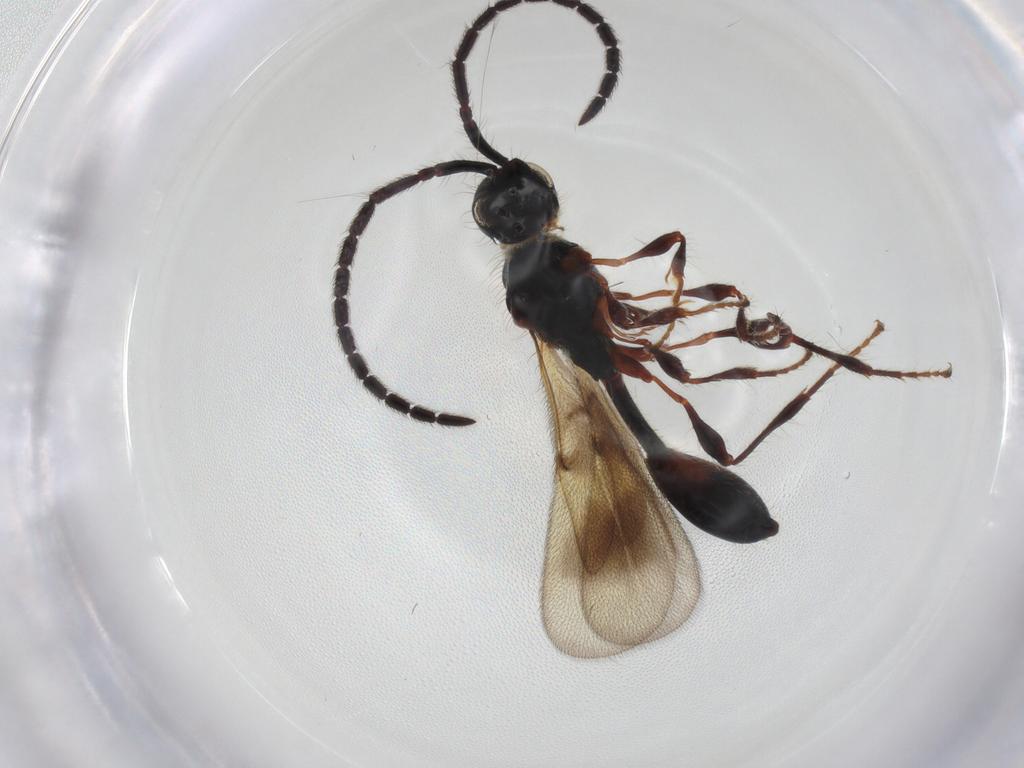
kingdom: Animalia
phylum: Arthropoda
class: Insecta
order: Hymenoptera
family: Diapriidae
